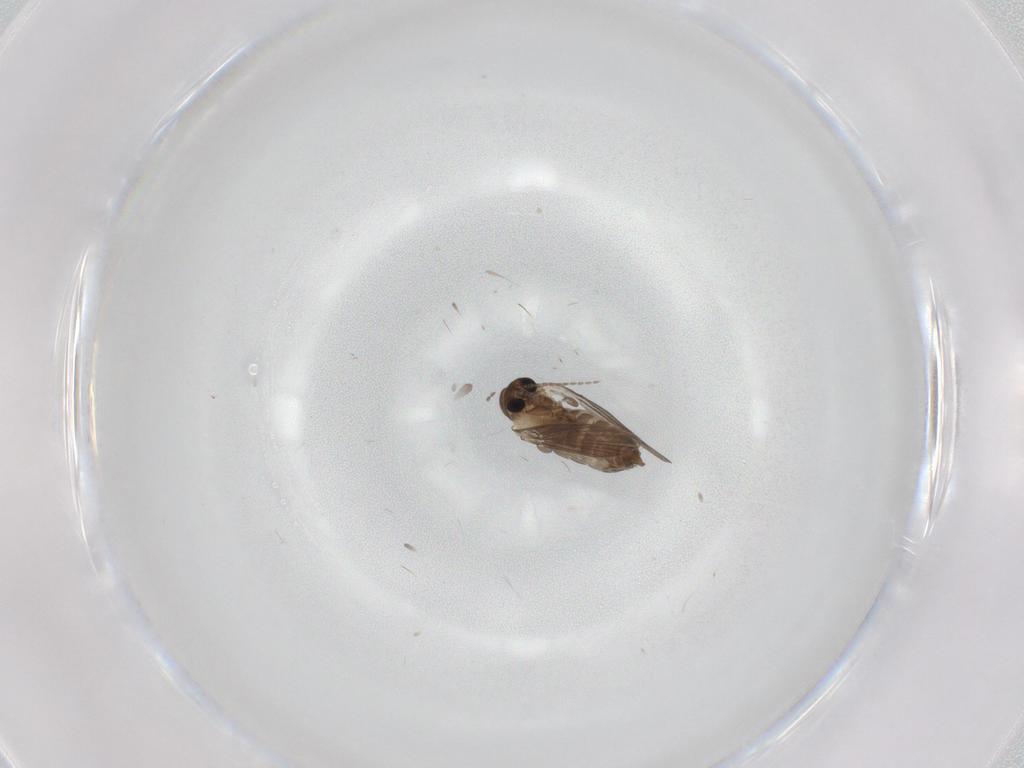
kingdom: Animalia
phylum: Arthropoda
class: Insecta
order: Diptera
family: Cecidomyiidae
